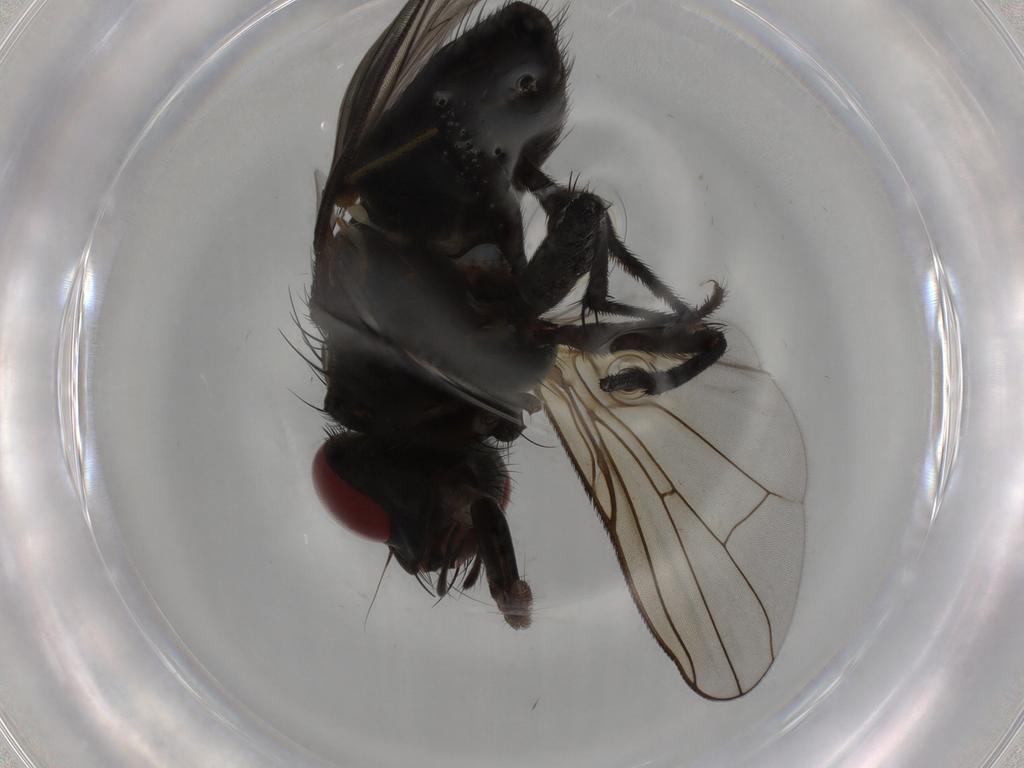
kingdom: Animalia
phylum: Arthropoda
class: Insecta
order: Diptera
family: Muscidae
